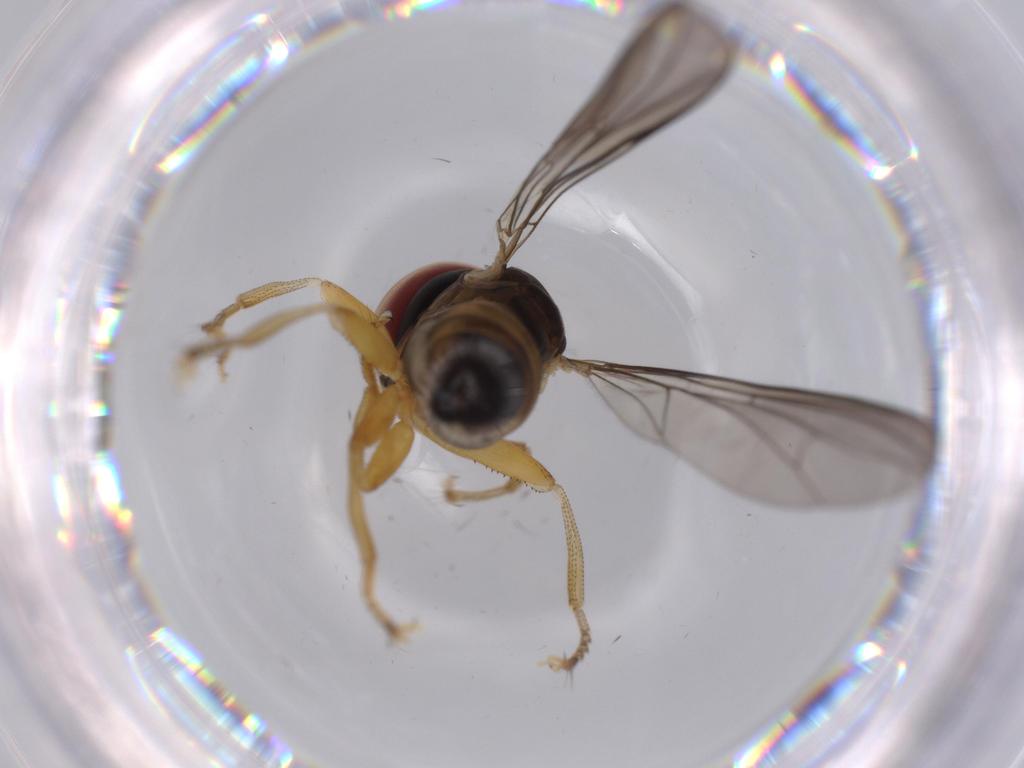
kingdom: Animalia
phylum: Arthropoda
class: Insecta
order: Diptera
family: Pipunculidae
